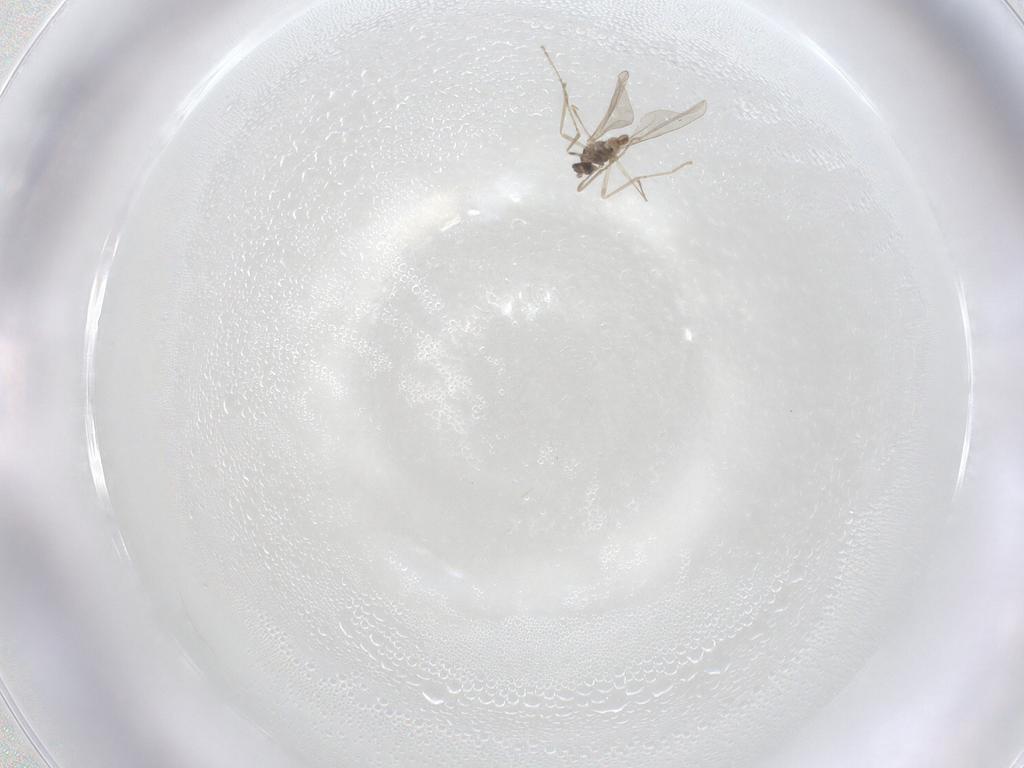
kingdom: Animalia
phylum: Arthropoda
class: Insecta
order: Diptera
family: Cecidomyiidae
